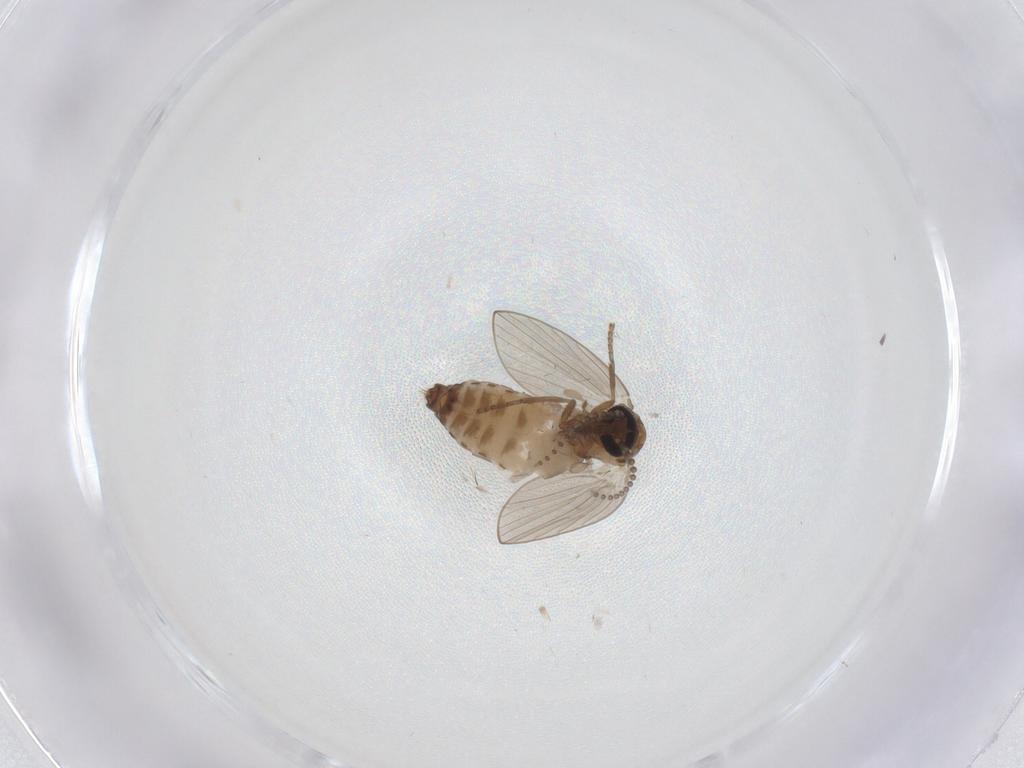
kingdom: Animalia
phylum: Arthropoda
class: Insecta
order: Diptera
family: Psychodidae
